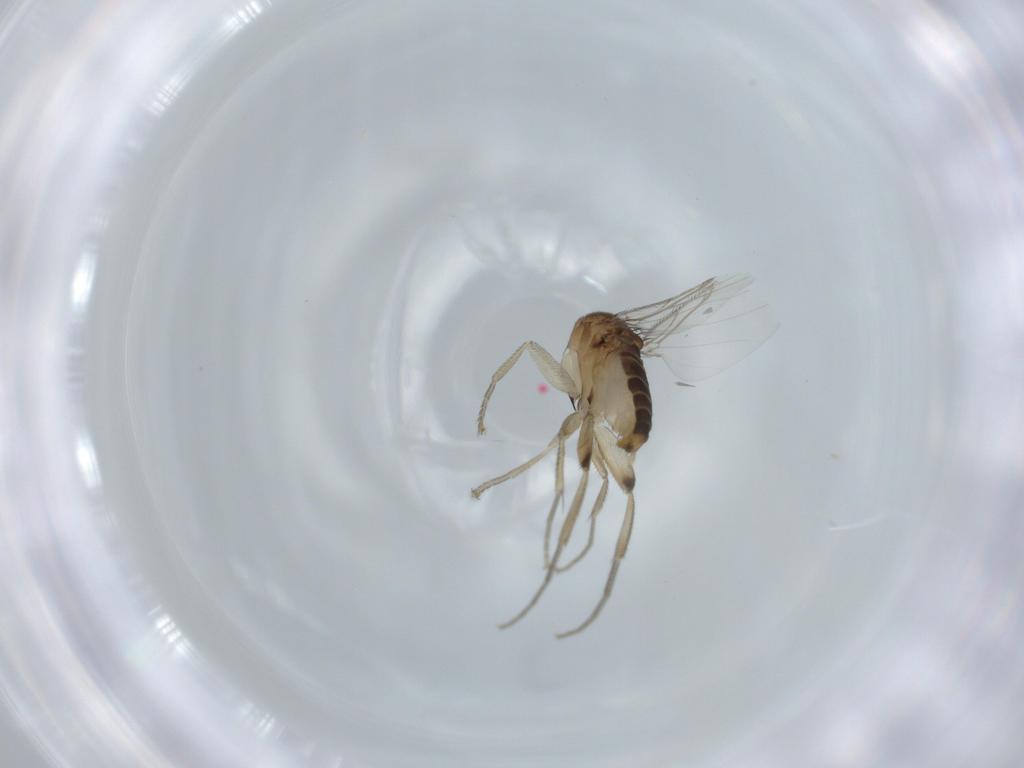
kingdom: Animalia
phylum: Arthropoda
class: Insecta
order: Diptera
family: Phoridae
